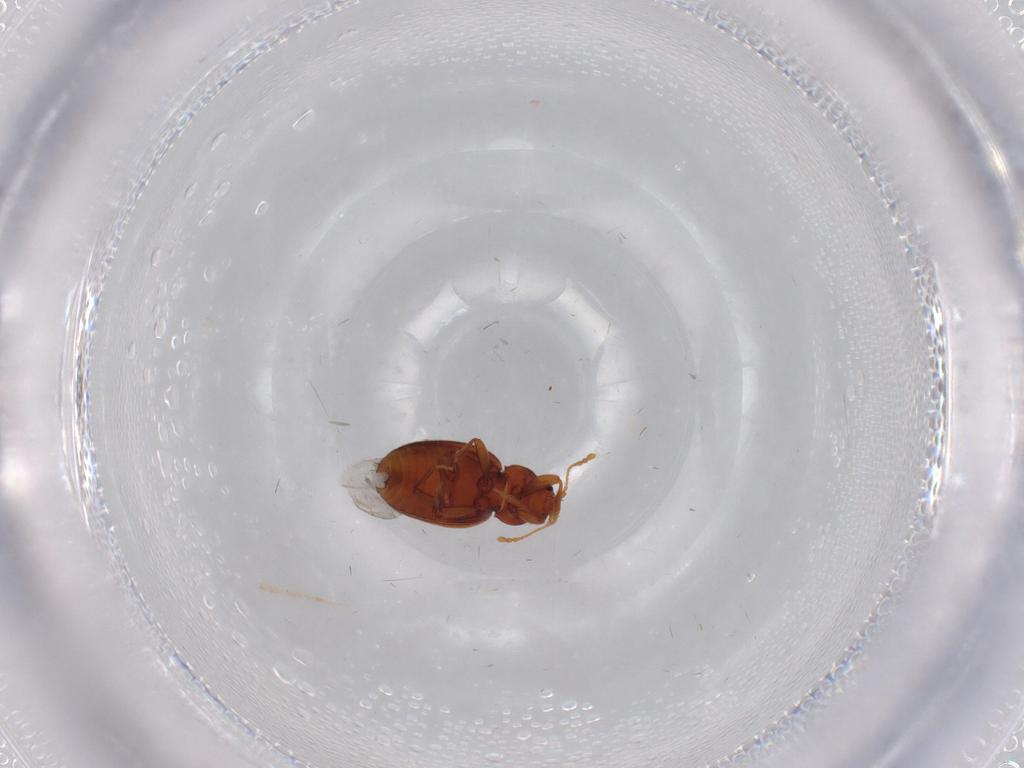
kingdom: Animalia
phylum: Arthropoda
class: Insecta
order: Coleoptera
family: Latridiidae
